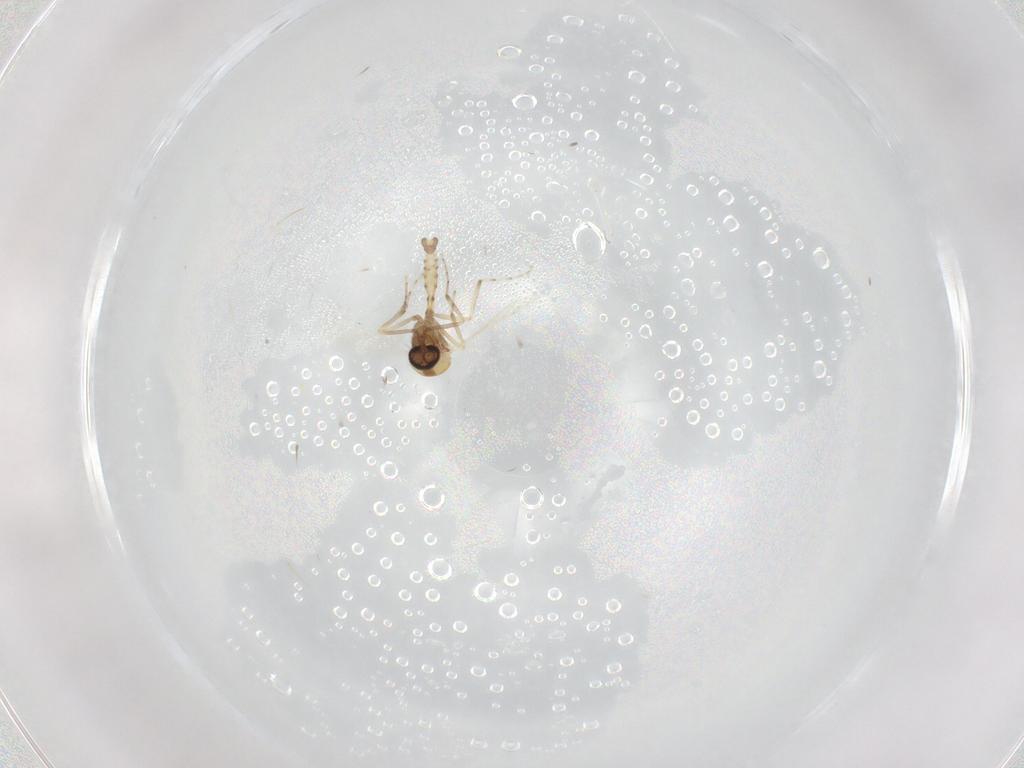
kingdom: Animalia
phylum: Arthropoda
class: Insecta
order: Diptera
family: Ceratopogonidae
